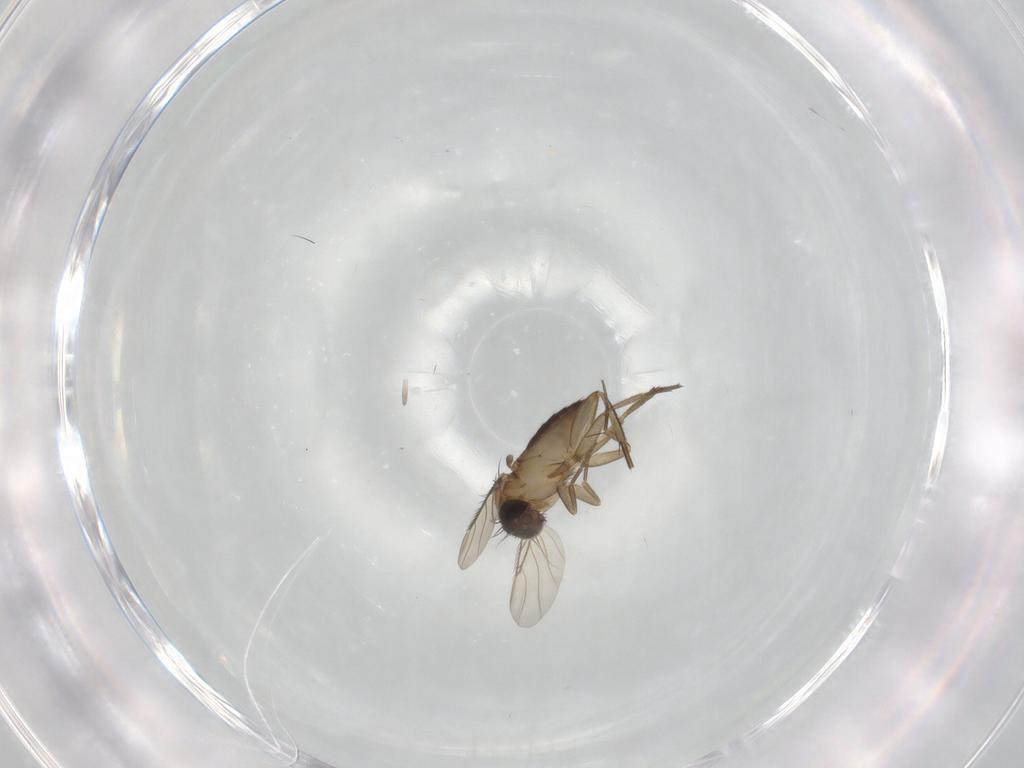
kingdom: Animalia
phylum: Arthropoda
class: Insecta
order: Diptera
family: Phoridae
